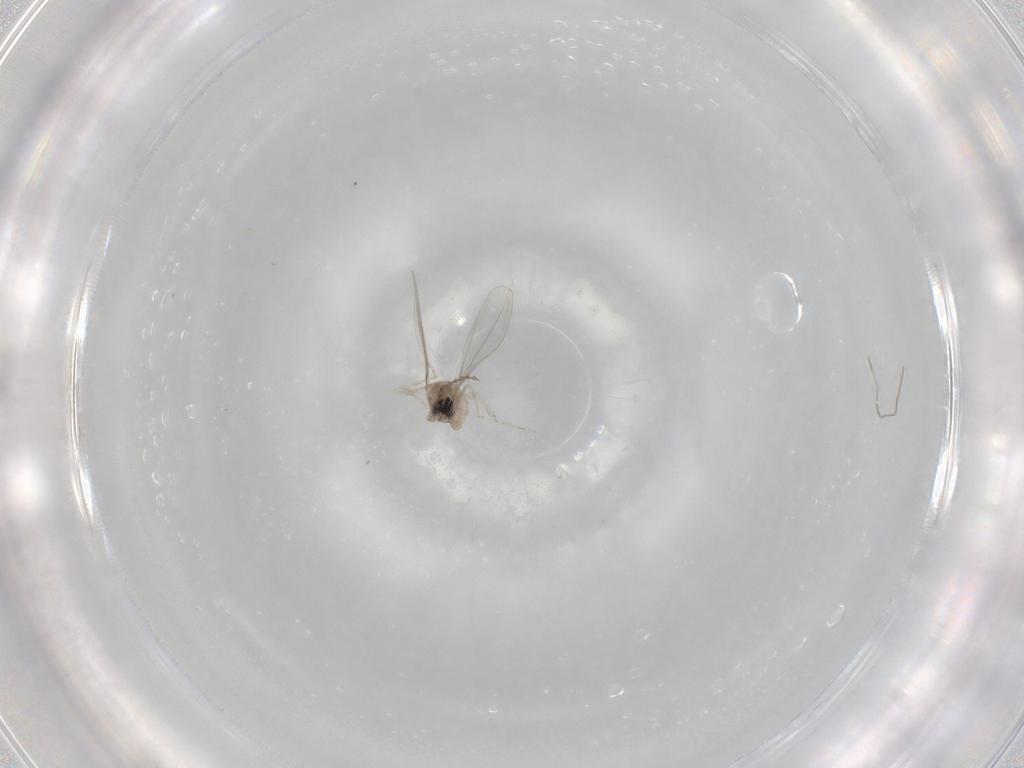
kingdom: Animalia
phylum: Arthropoda
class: Insecta
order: Diptera
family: Cecidomyiidae
